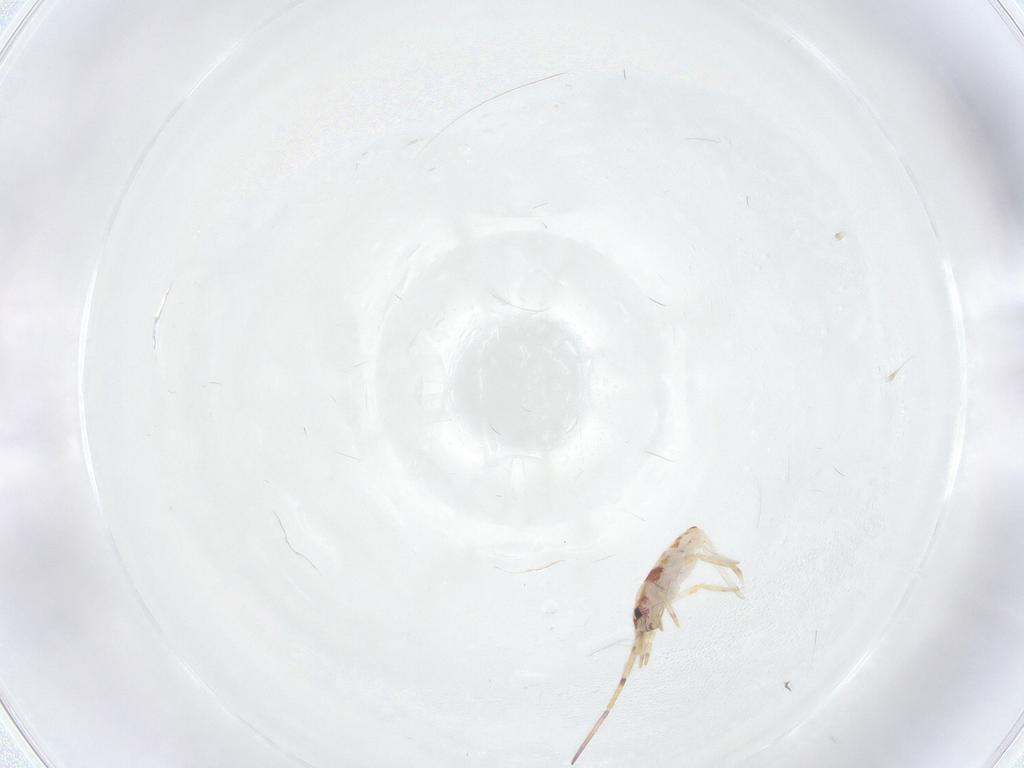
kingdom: Animalia
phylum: Arthropoda
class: Collembola
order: Entomobryomorpha
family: Entomobryidae
